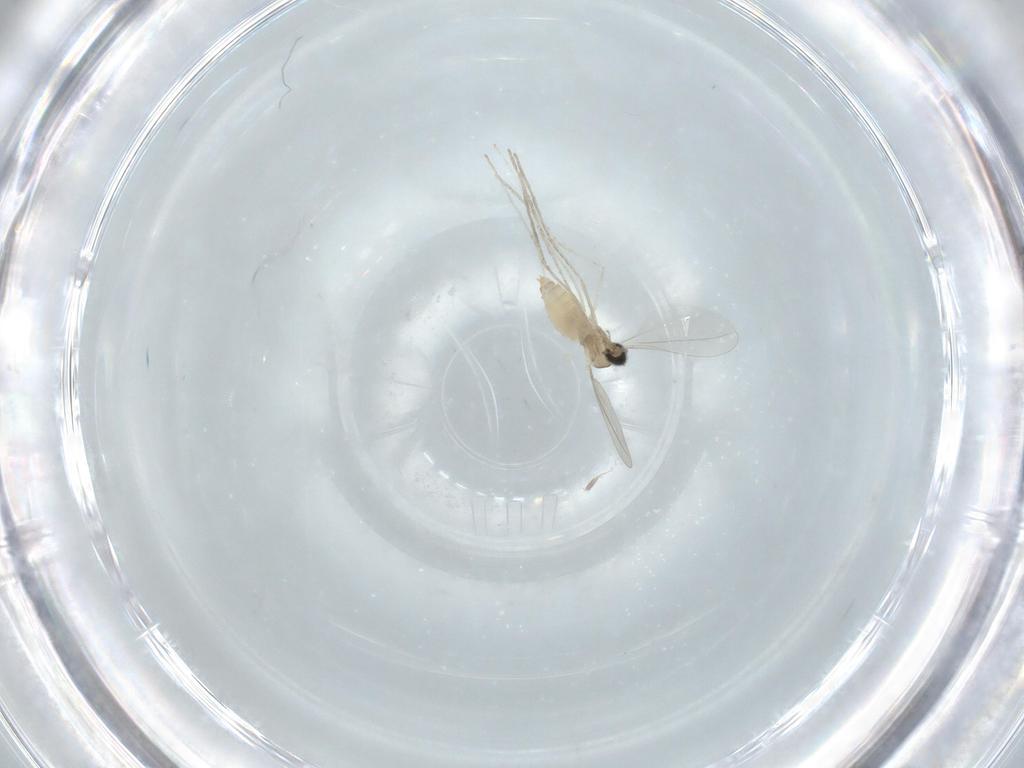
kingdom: Animalia
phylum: Arthropoda
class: Insecta
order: Diptera
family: Cecidomyiidae
